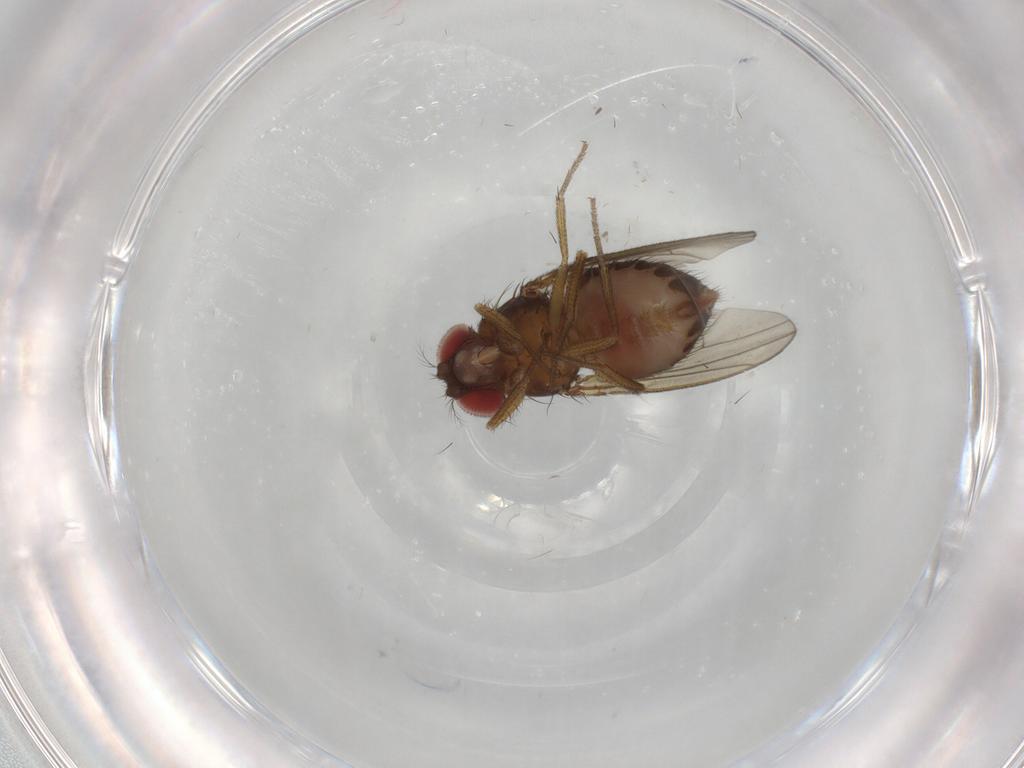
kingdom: Animalia
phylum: Arthropoda
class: Insecta
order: Diptera
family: Drosophilidae
